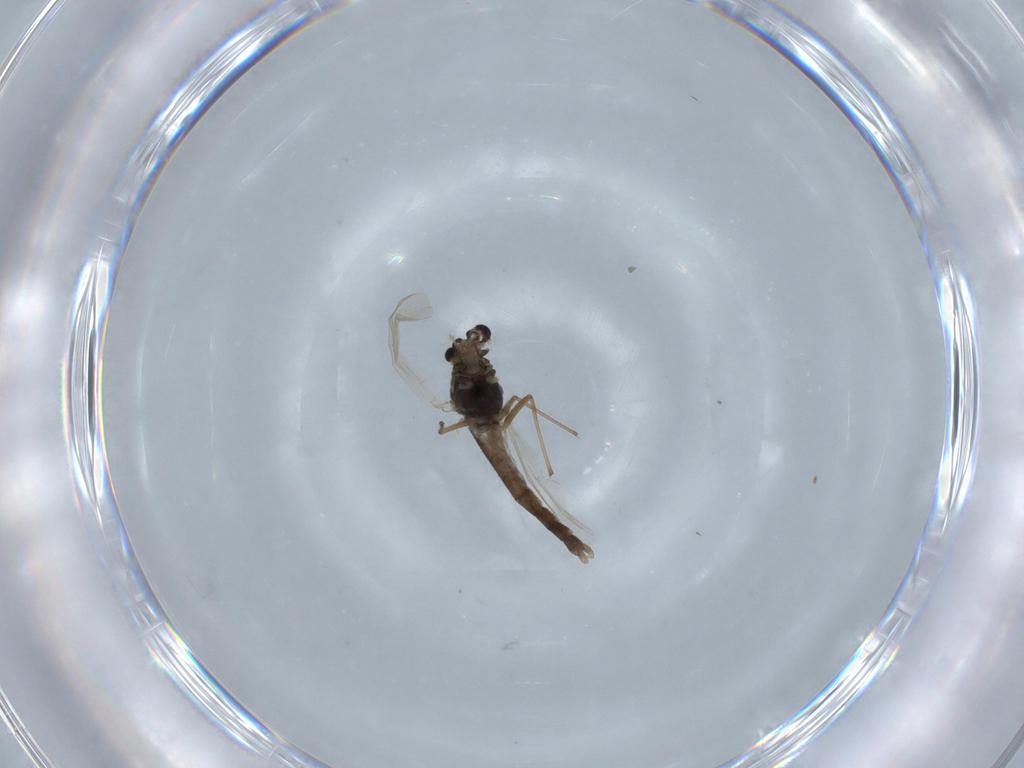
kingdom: Animalia
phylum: Arthropoda
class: Insecta
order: Diptera
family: Chironomidae
